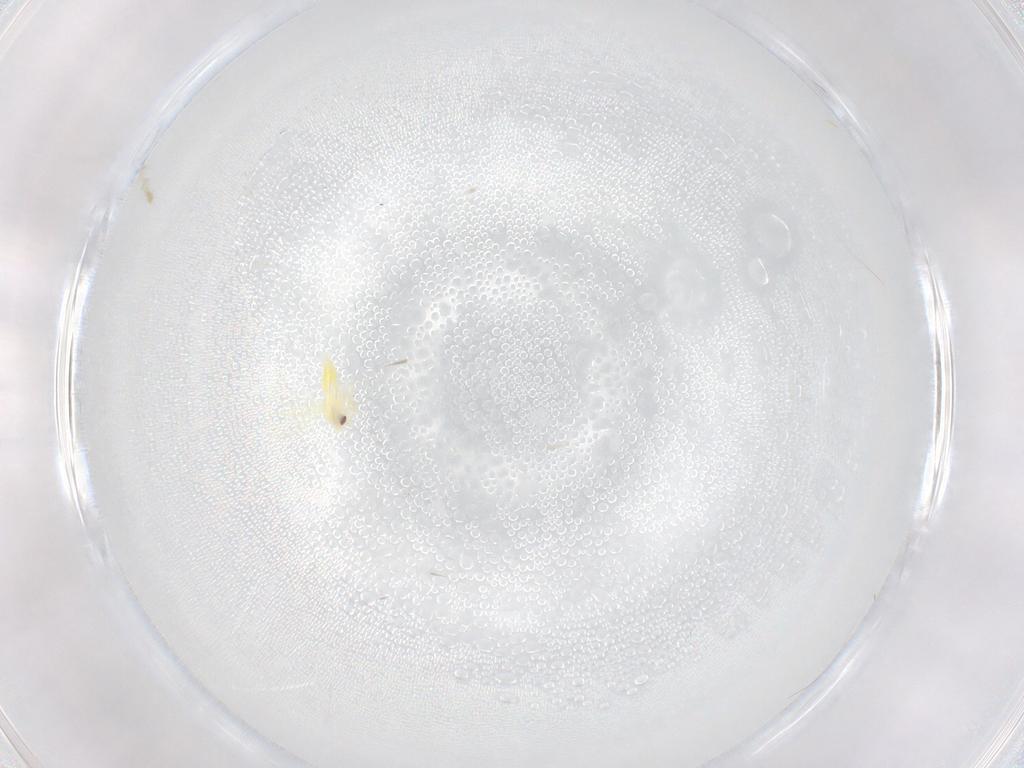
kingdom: Animalia
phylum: Arthropoda
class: Insecta
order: Hemiptera
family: Aleyrodidae
